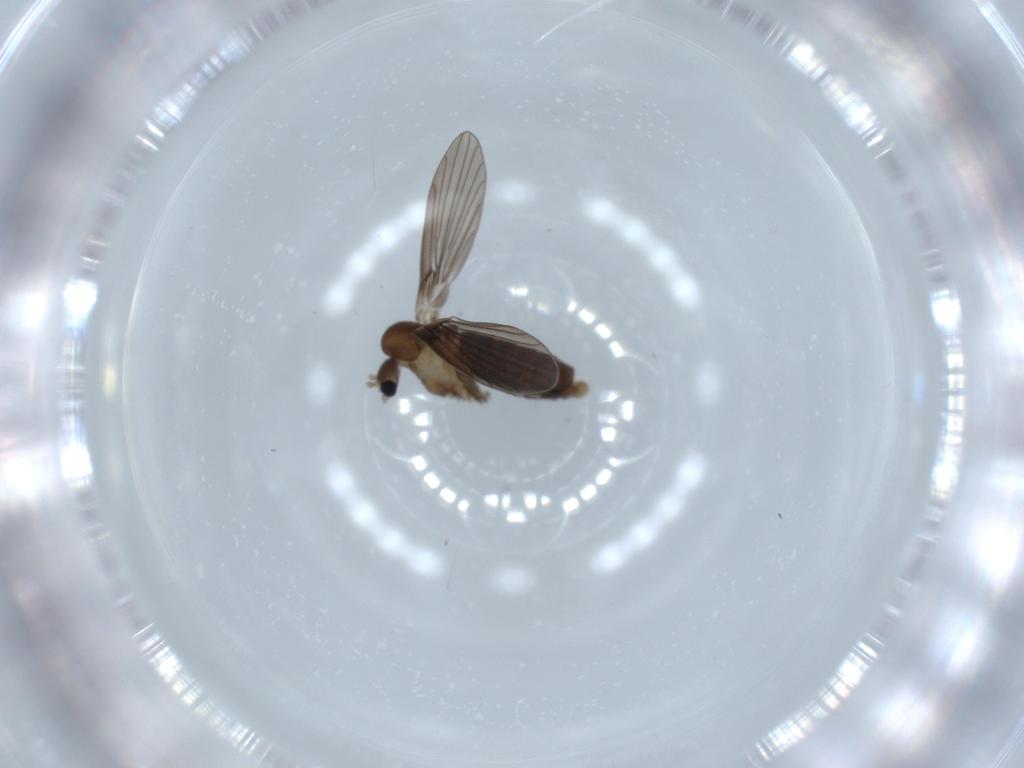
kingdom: Animalia
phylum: Arthropoda
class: Insecta
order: Diptera
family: Psychodidae
